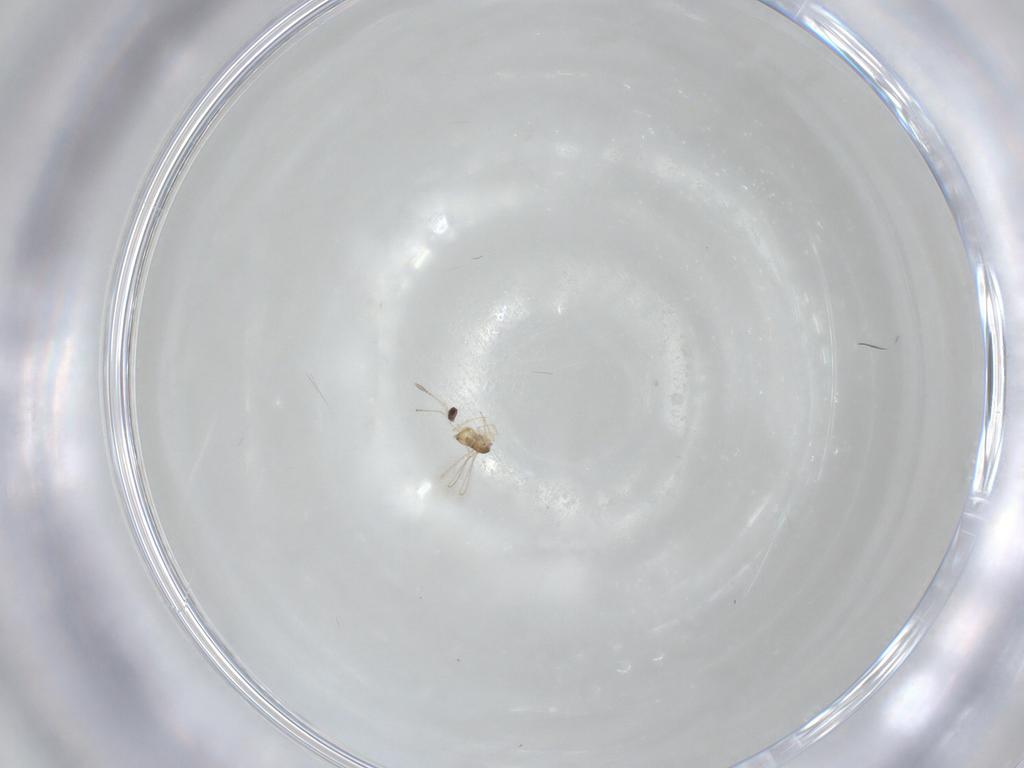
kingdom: Animalia
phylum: Arthropoda
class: Insecta
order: Hymenoptera
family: Mymaridae
